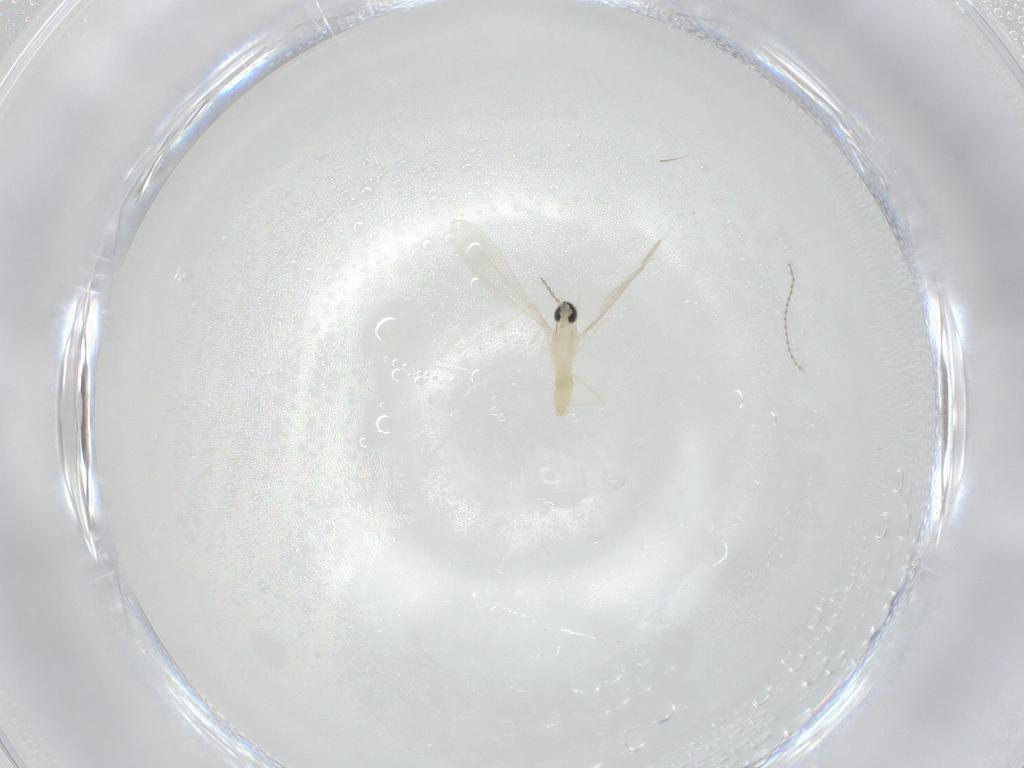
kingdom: Animalia
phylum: Arthropoda
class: Insecta
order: Diptera
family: Cecidomyiidae
